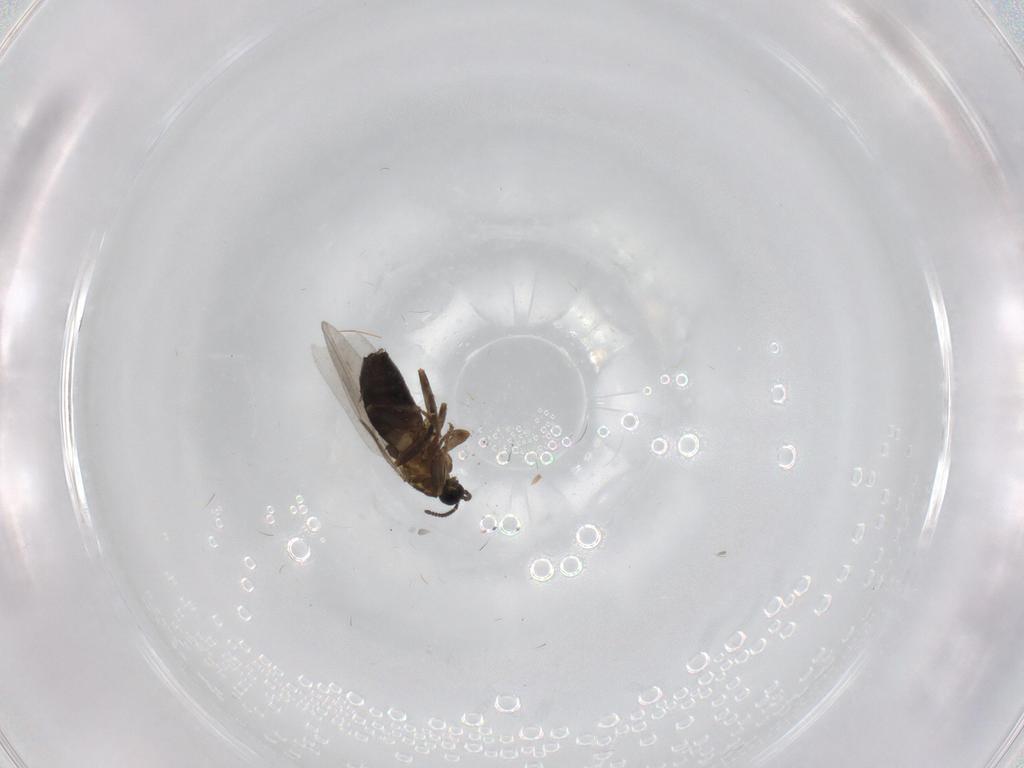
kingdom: Animalia
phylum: Arthropoda
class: Insecta
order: Diptera
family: Scatopsidae
